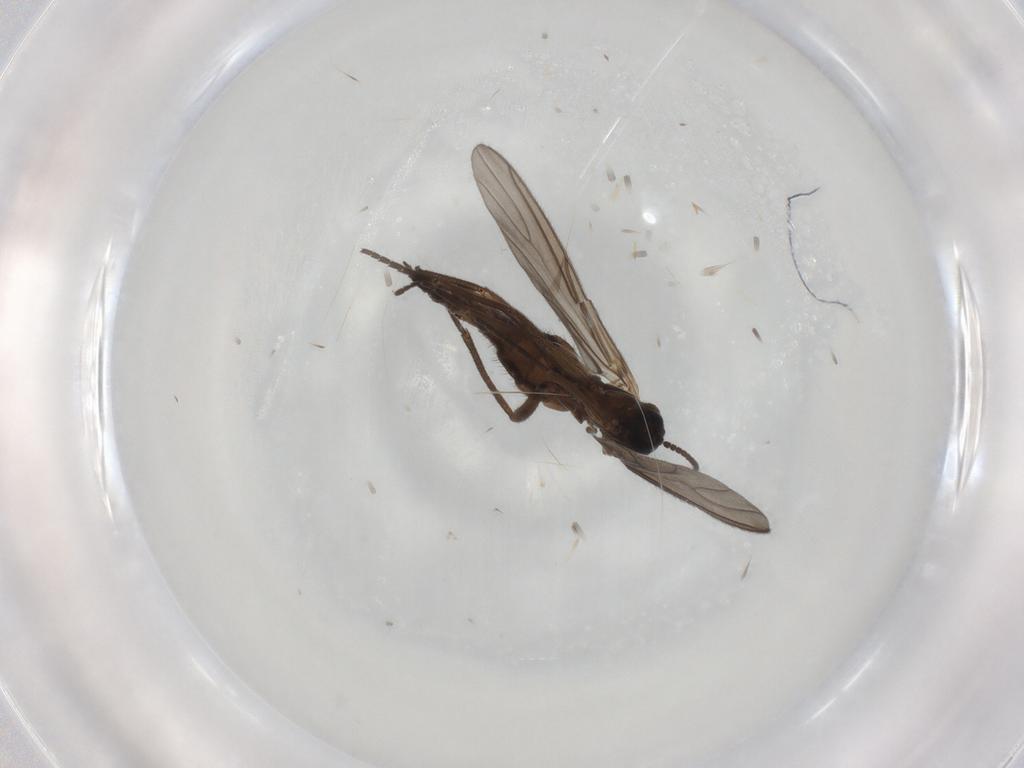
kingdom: Animalia
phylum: Arthropoda
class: Insecta
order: Diptera
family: Sciaridae
